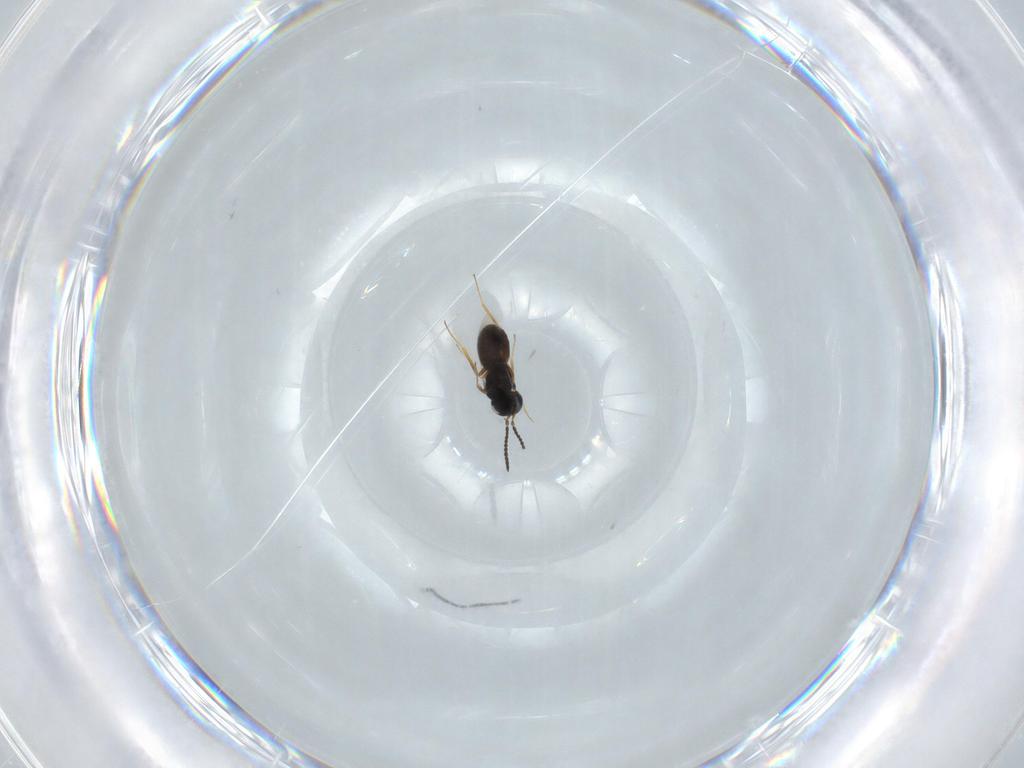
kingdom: Animalia
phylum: Arthropoda
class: Insecta
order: Hymenoptera
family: Scelionidae
